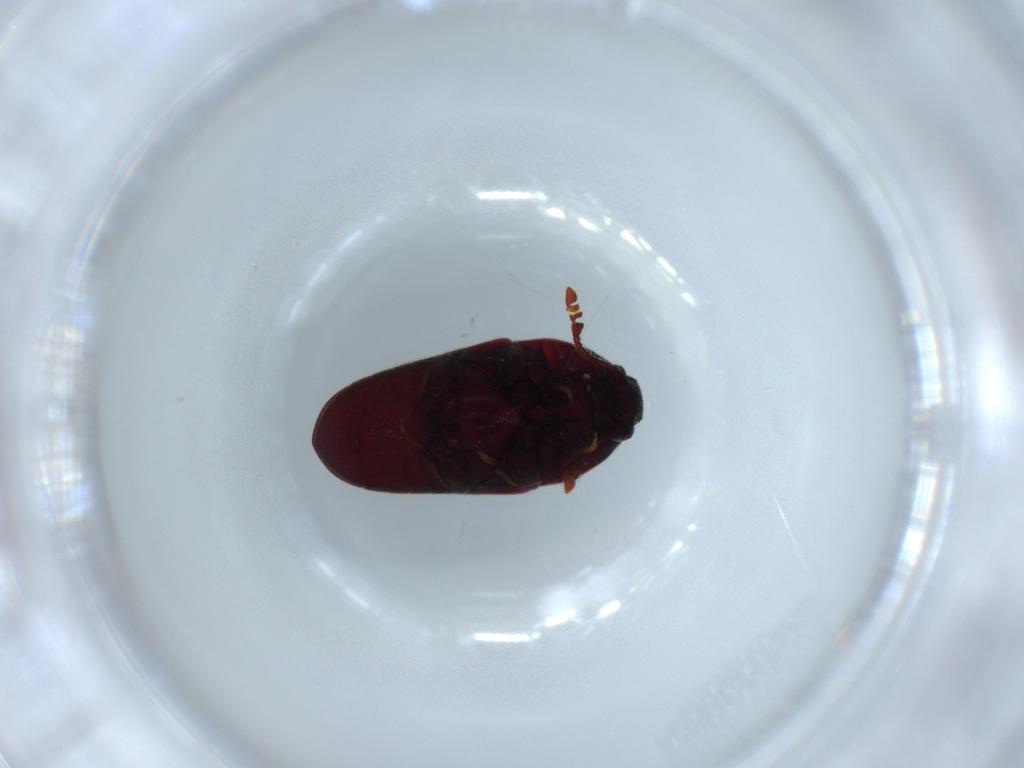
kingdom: Animalia
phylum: Arthropoda
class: Insecta
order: Coleoptera
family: Throscidae
